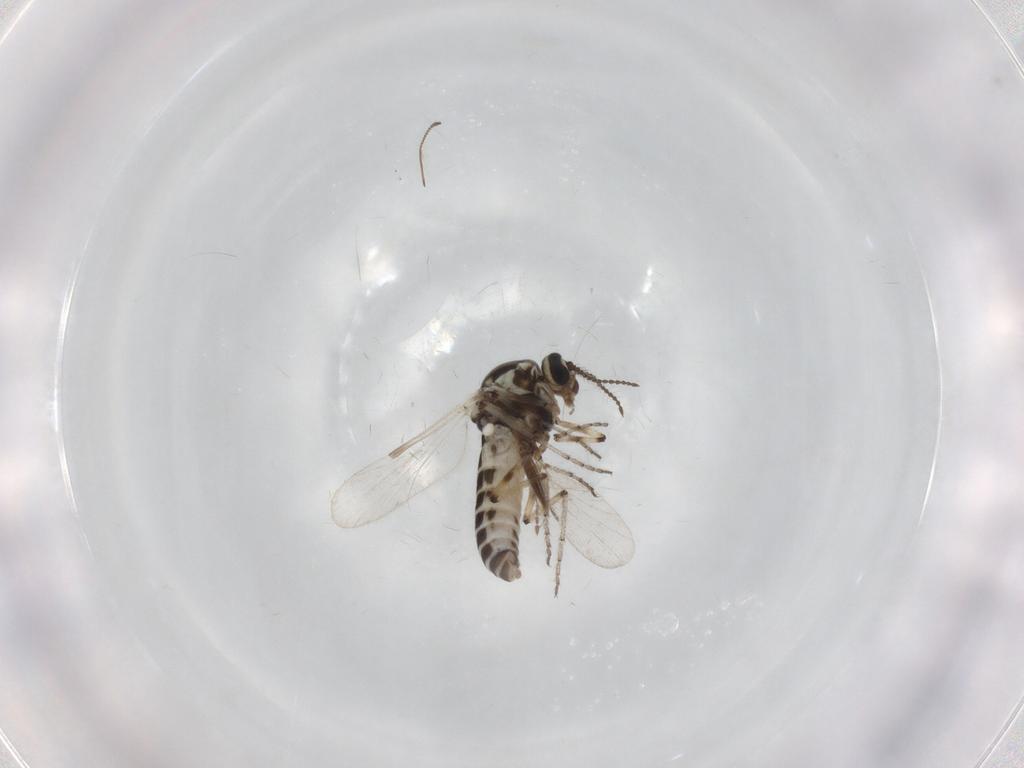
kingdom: Animalia
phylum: Arthropoda
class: Insecta
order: Diptera
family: Ceratopogonidae
